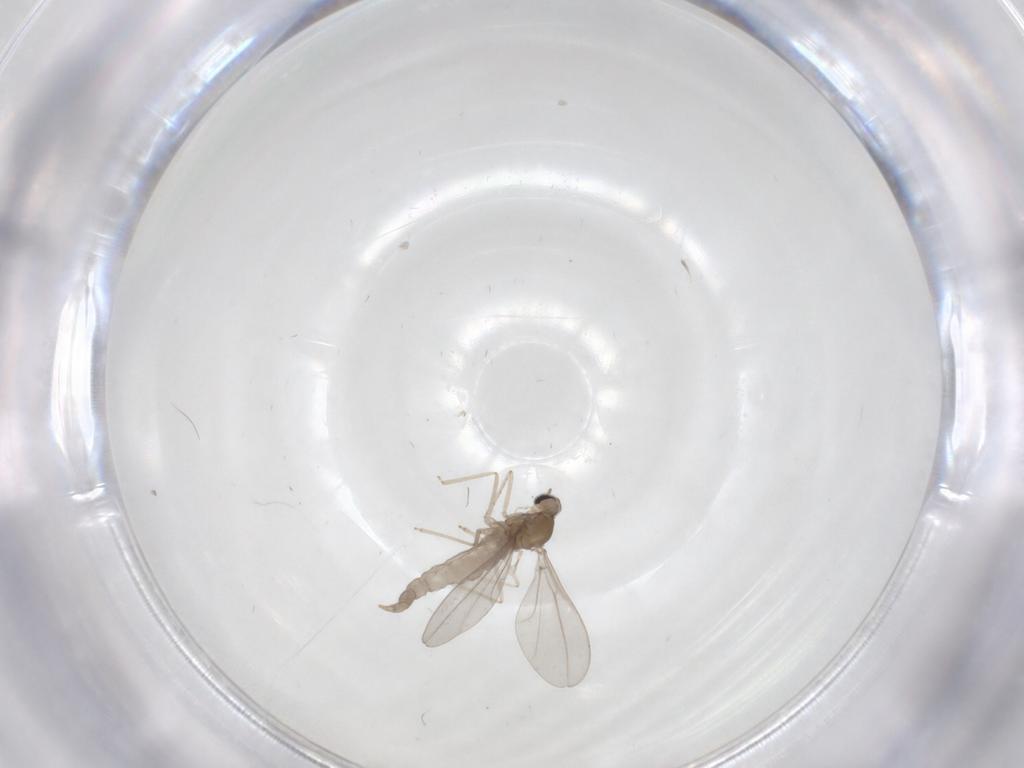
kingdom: Animalia
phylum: Arthropoda
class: Insecta
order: Diptera
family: Cecidomyiidae
